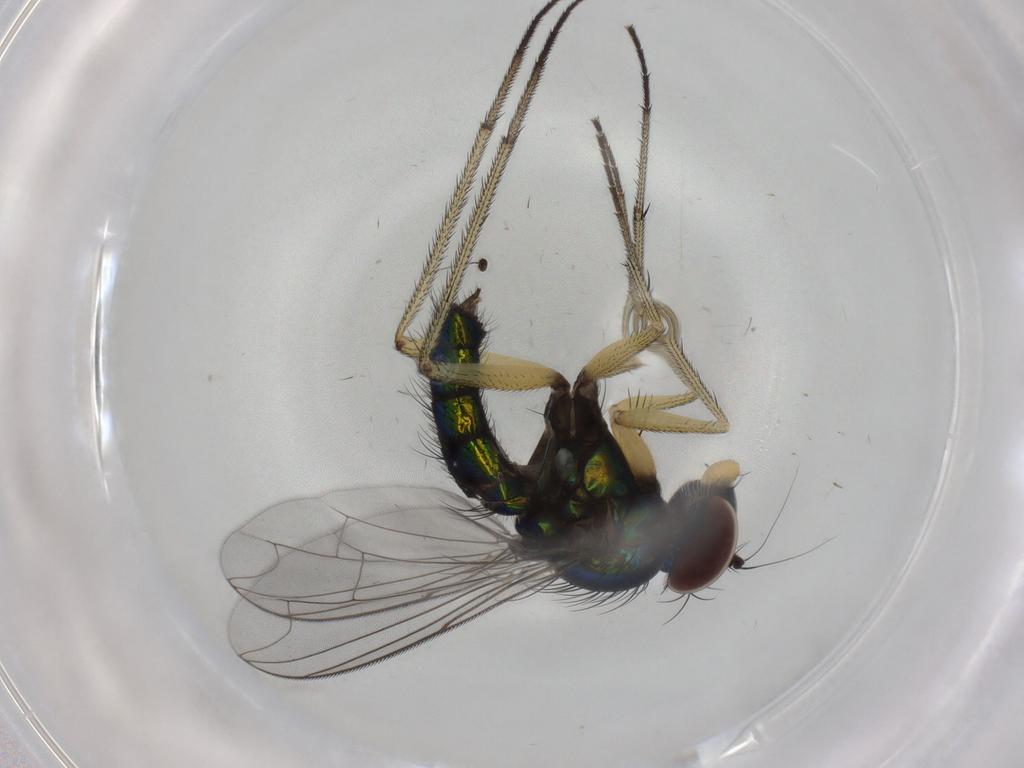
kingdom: Animalia
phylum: Arthropoda
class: Insecta
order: Diptera
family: Dolichopodidae
